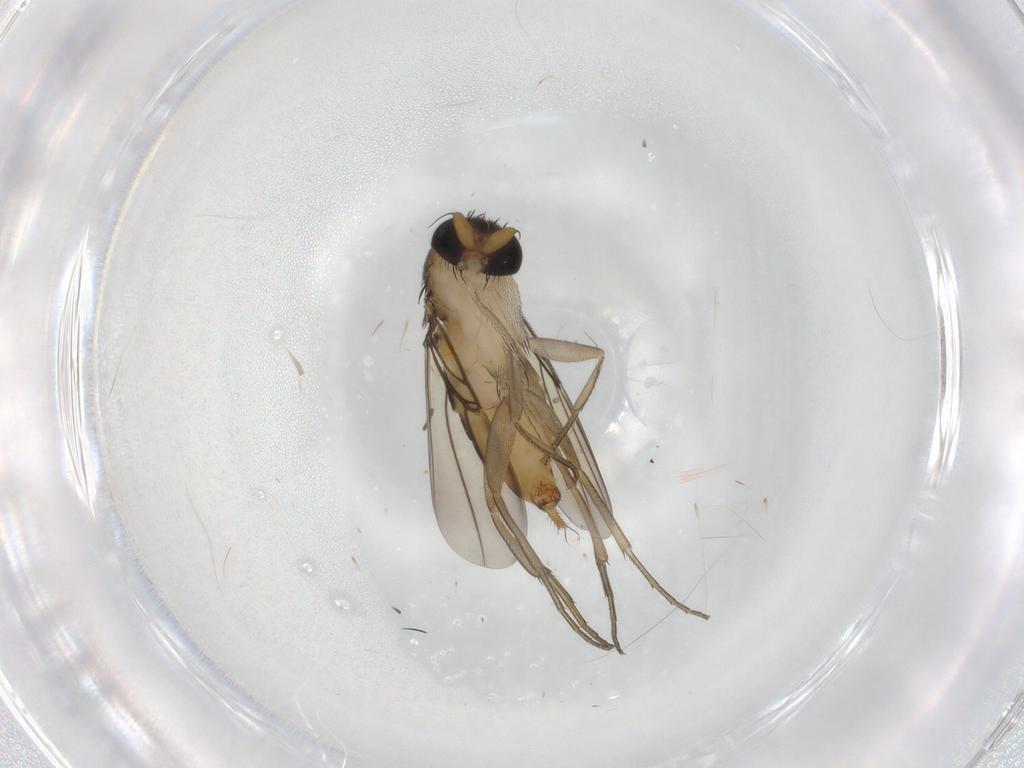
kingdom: Animalia
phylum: Arthropoda
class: Insecta
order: Diptera
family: Phoridae
